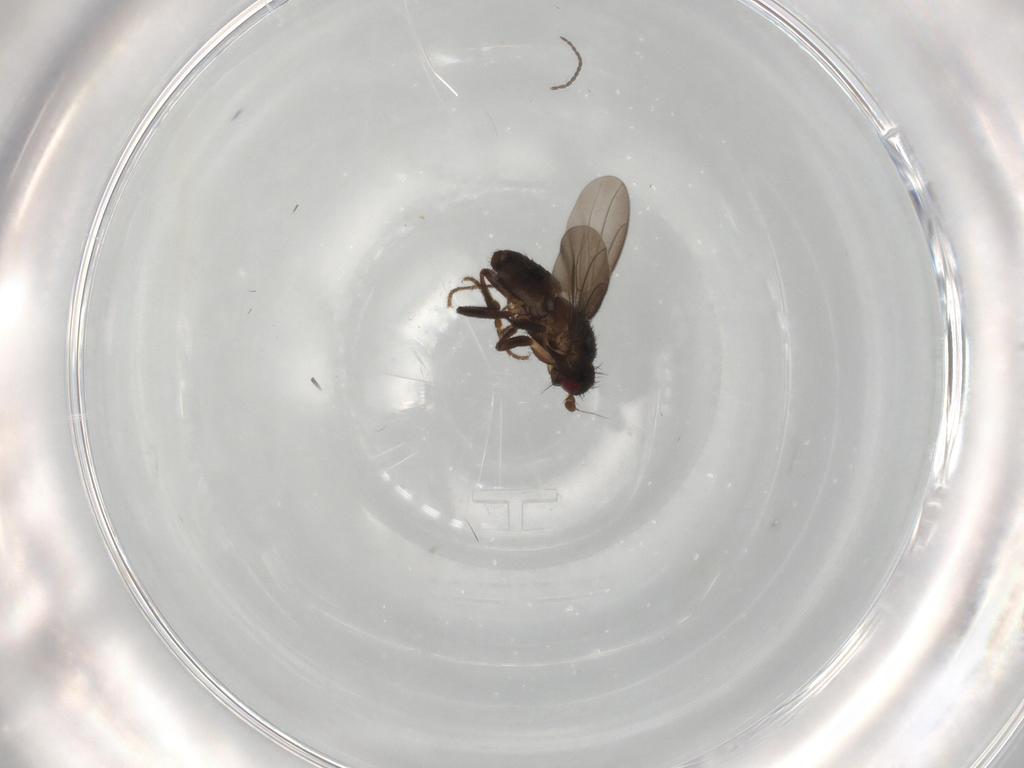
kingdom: Animalia
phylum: Arthropoda
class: Insecta
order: Diptera
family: Sphaeroceridae
